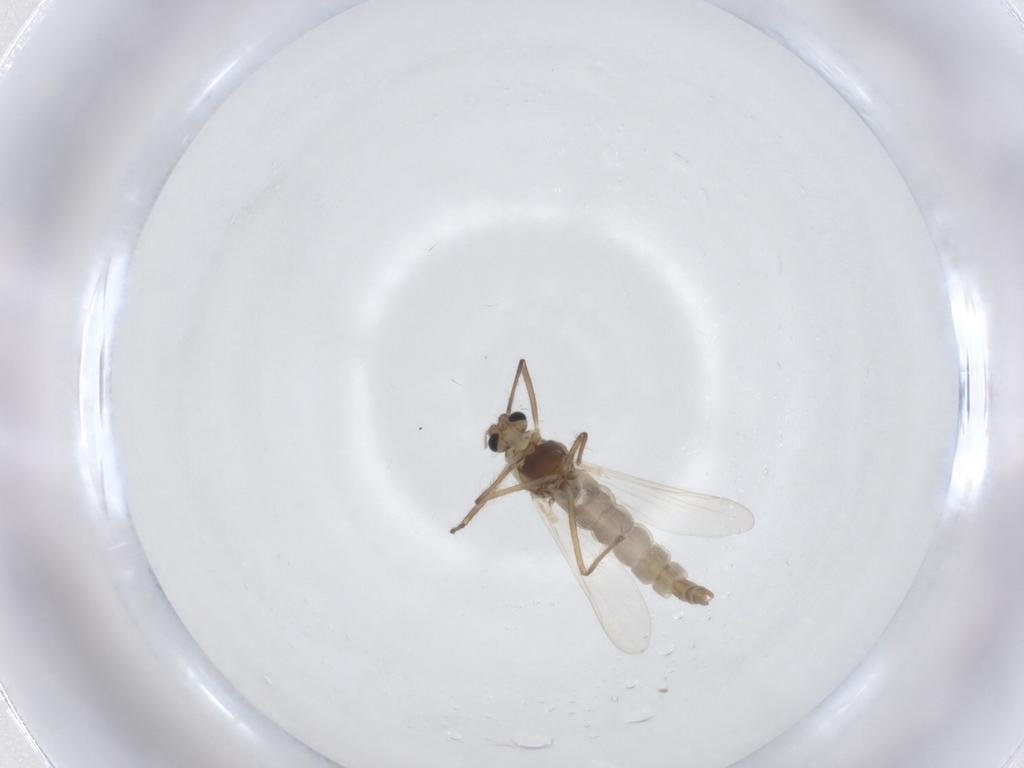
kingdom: Animalia
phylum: Arthropoda
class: Insecta
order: Diptera
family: Chironomidae
